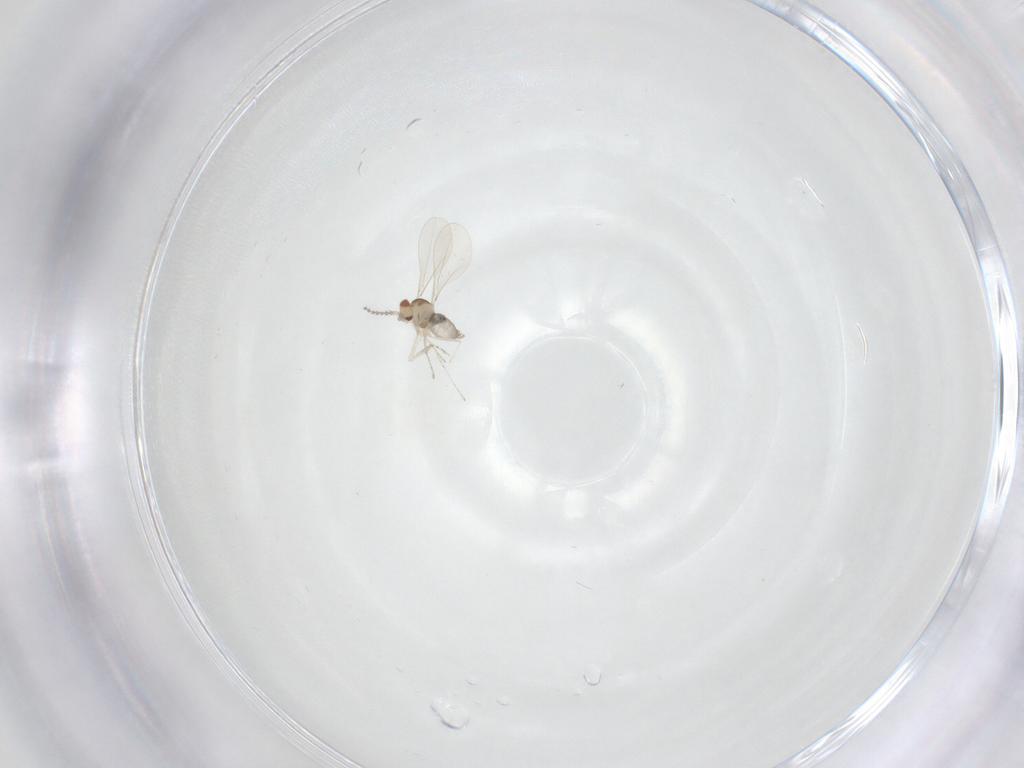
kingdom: Animalia
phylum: Arthropoda
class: Insecta
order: Diptera
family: Cecidomyiidae
